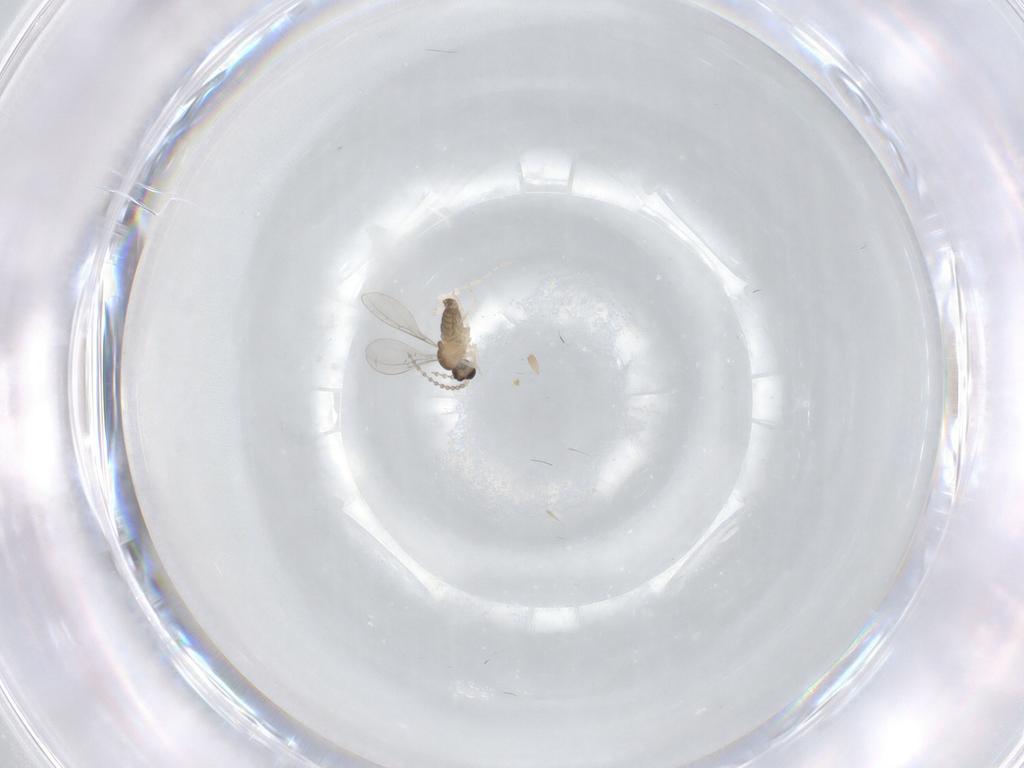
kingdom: Animalia
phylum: Arthropoda
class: Insecta
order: Diptera
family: Cecidomyiidae
